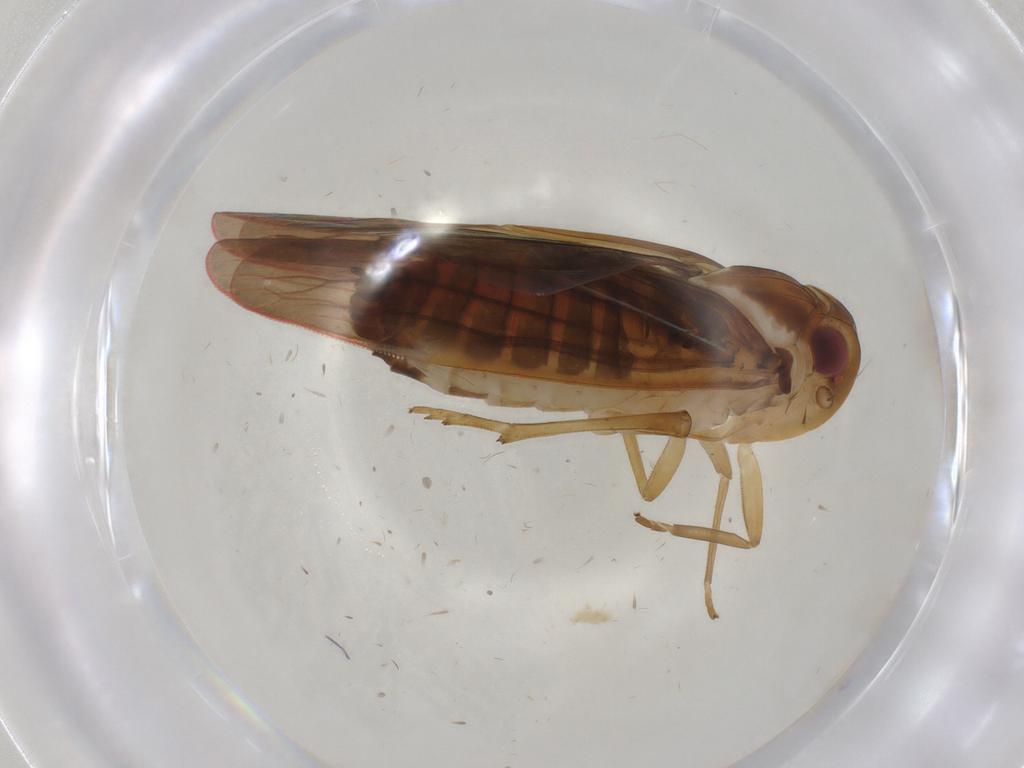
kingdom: Animalia
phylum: Arthropoda
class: Insecta
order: Hemiptera
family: Achilidae
